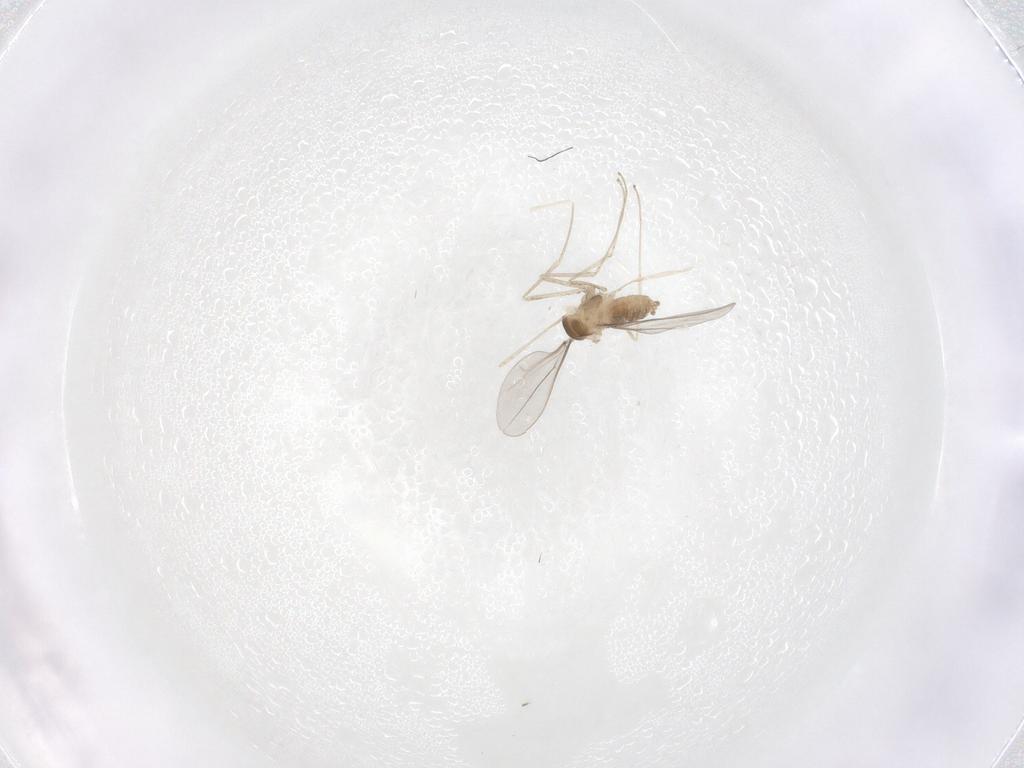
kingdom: Animalia
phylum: Arthropoda
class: Insecta
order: Diptera
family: Cecidomyiidae
